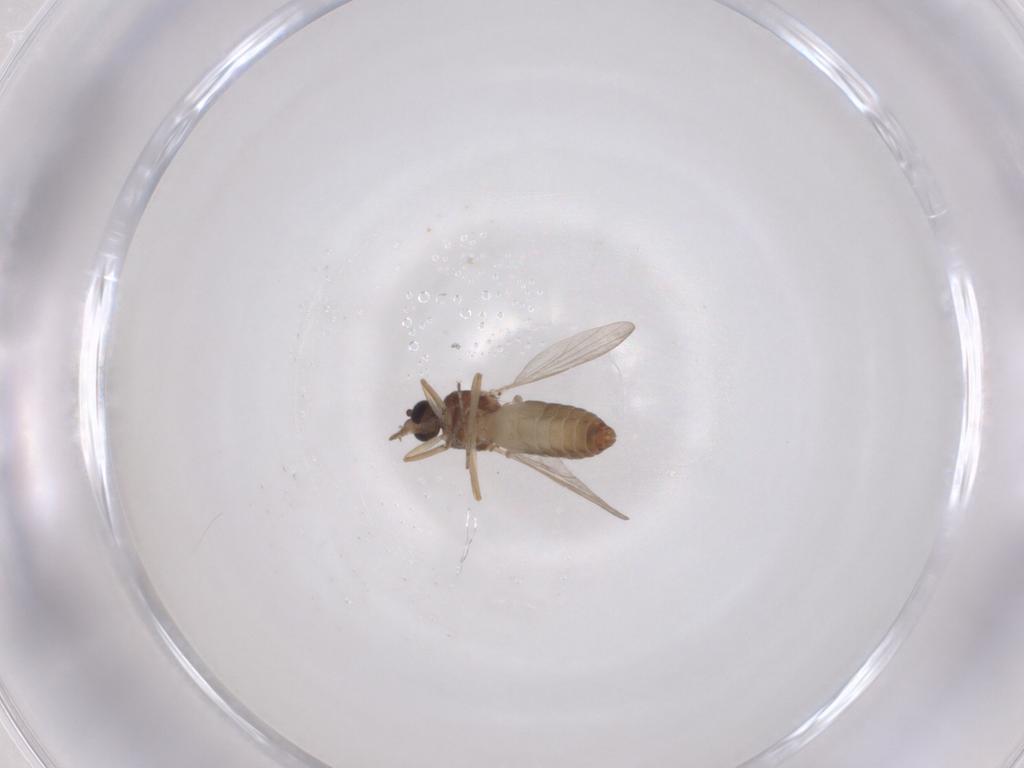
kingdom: Animalia
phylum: Arthropoda
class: Insecta
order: Diptera
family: Ceratopogonidae
